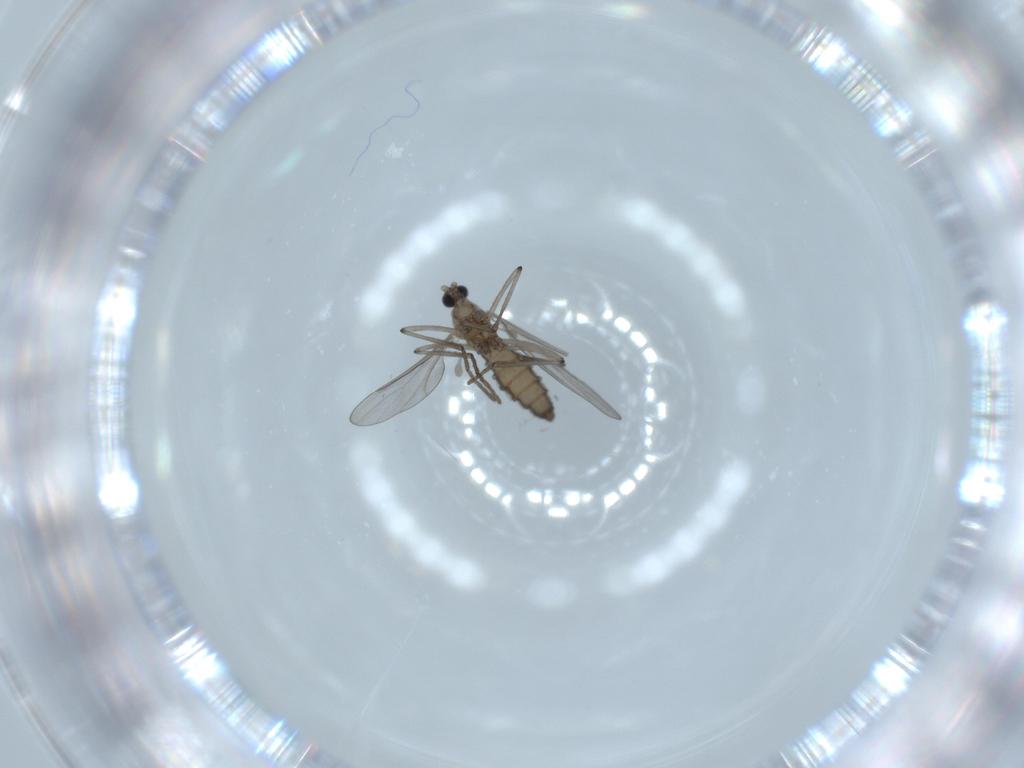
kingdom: Animalia
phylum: Arthropoda
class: Insecta
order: Diptera
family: Cecidomyiidae
